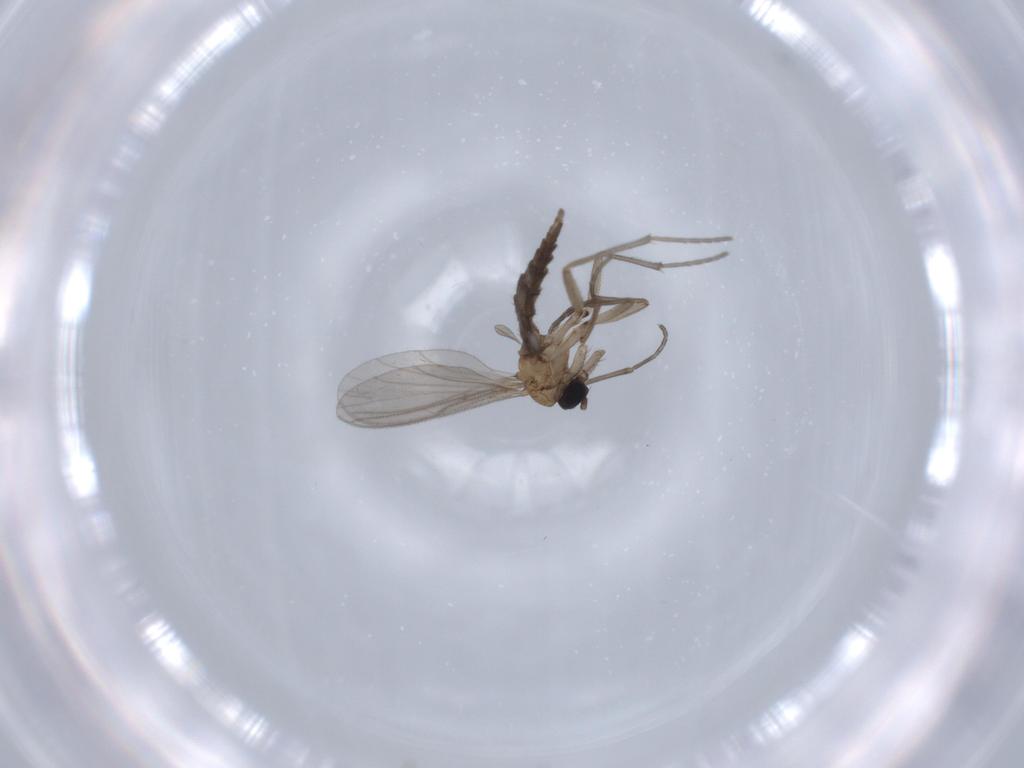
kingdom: Animalia
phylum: Arthropoda
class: Insecta
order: Diptera
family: Sciaridae
